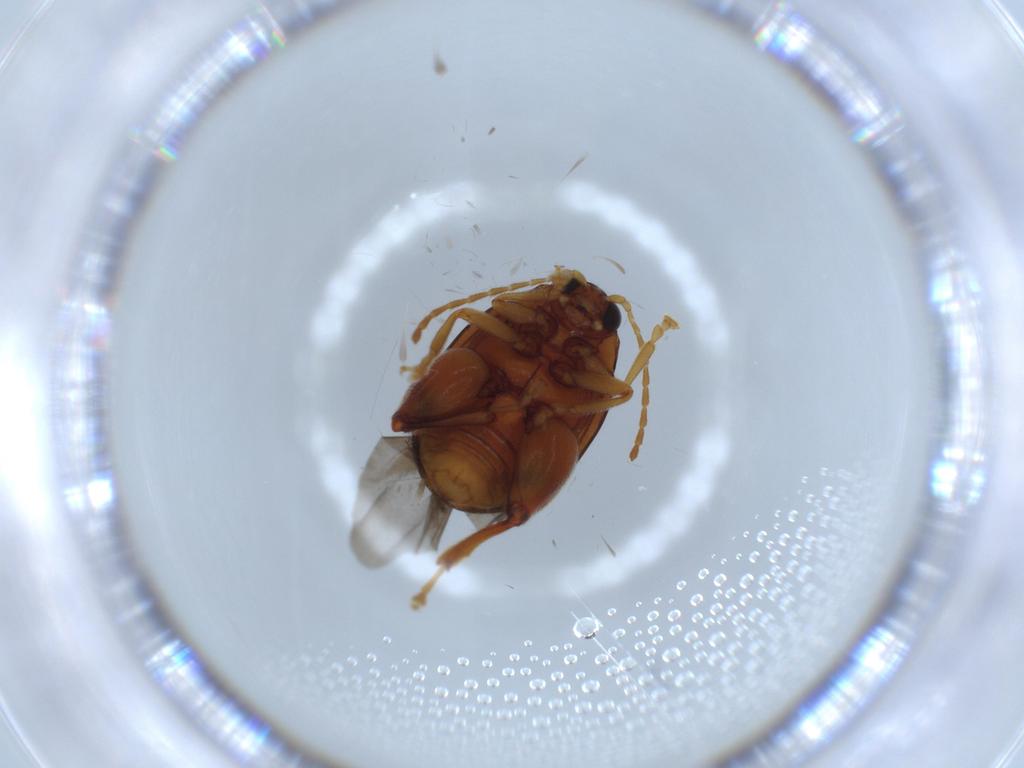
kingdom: Animalia
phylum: Arthropoda
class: Insecta
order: Coleoptera
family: Chrysomelidae
